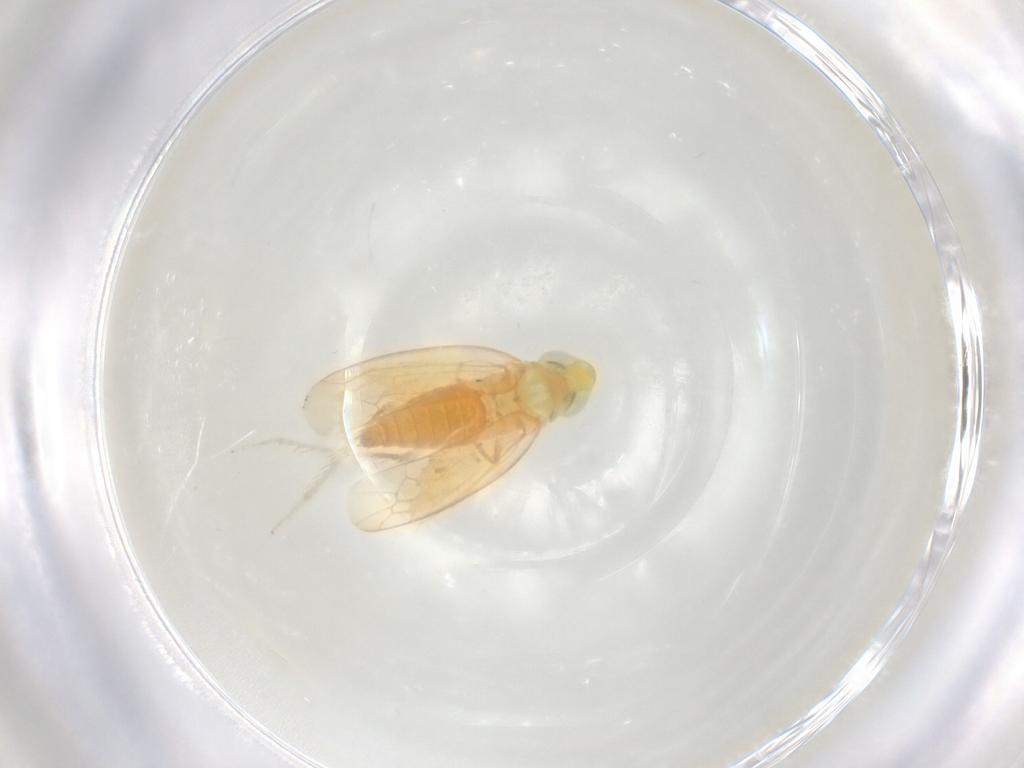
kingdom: Animalia
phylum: Arthropoda
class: Insecta
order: Hemiptera
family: Cicadellidae
